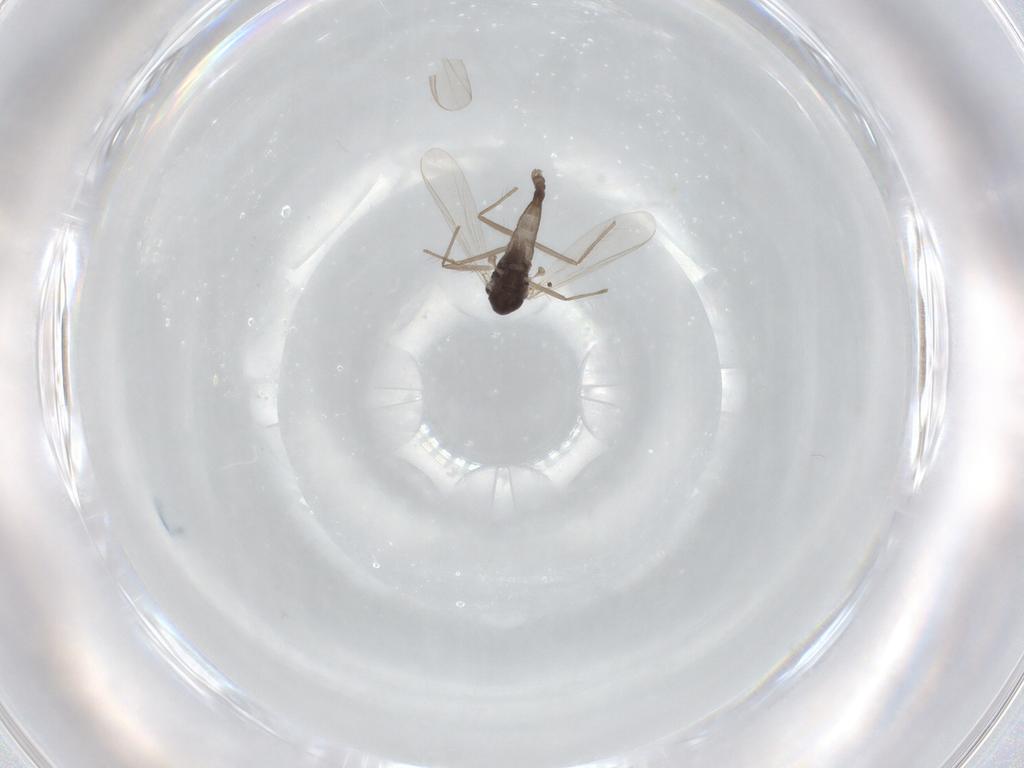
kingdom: Animalia
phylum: Arthropoda
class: Insecta
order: Diptera
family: Chironomidae
